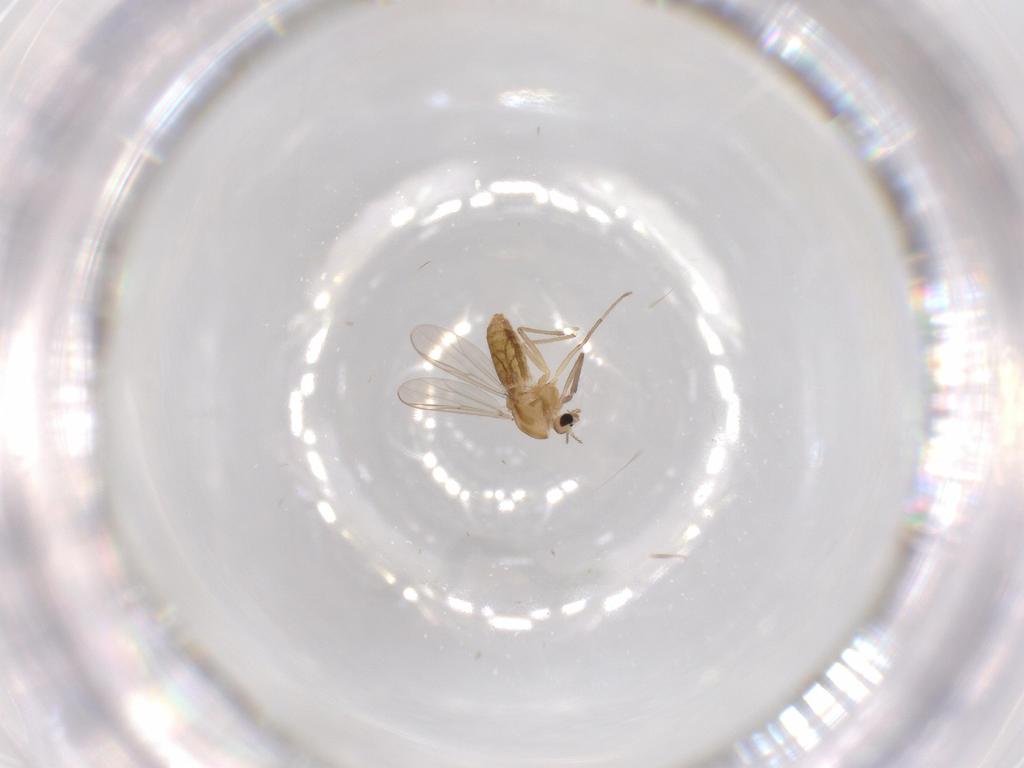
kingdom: Animalia
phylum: Arthropoda
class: Insecta
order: Diptera
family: Chironomidae
